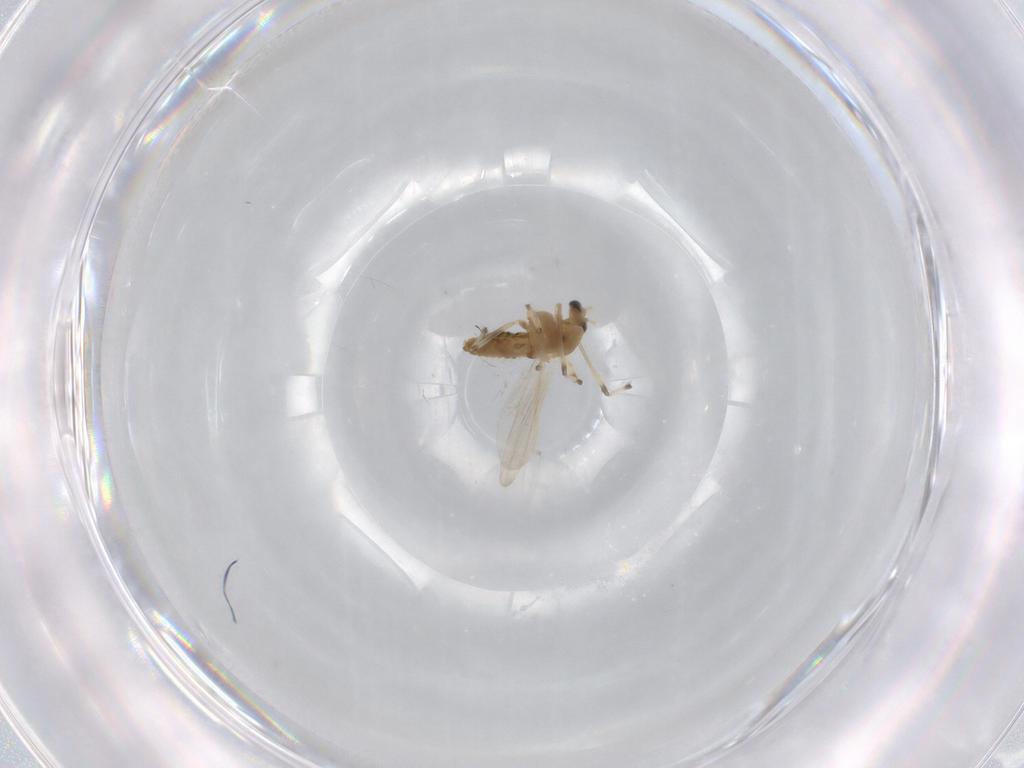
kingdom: Animalia
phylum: Arthropoda
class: Insecta
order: Diptera
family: Chironomidae
